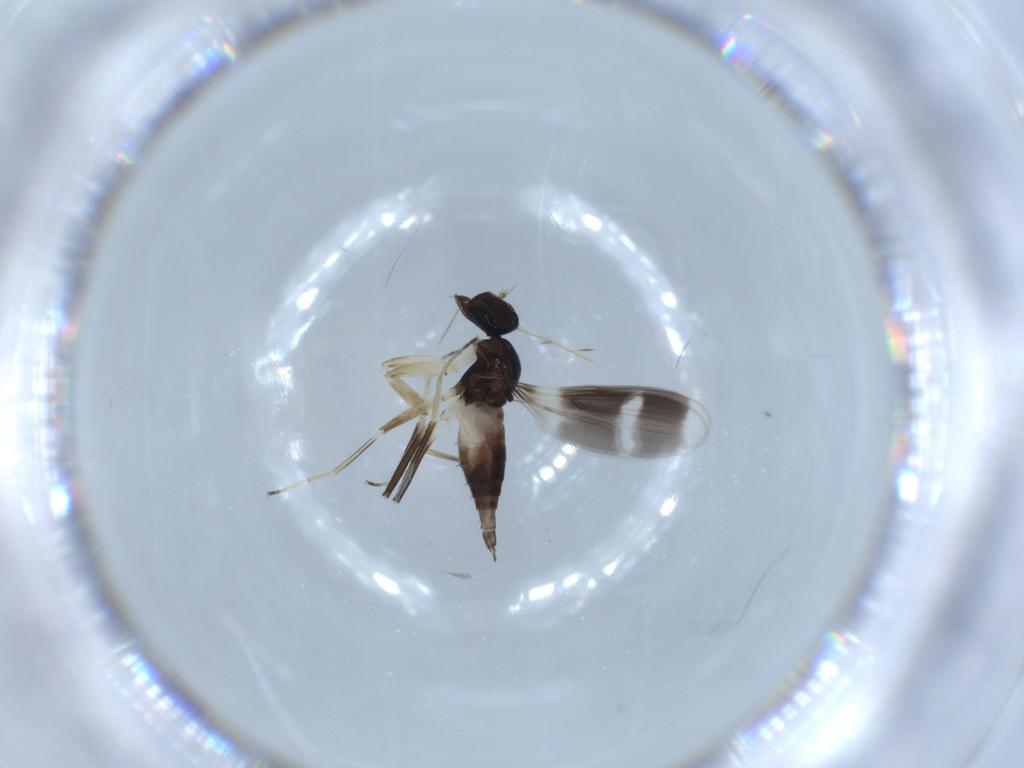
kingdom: Animalia
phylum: Arthropoda
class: Insecta
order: Diptera
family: Hybotidae
